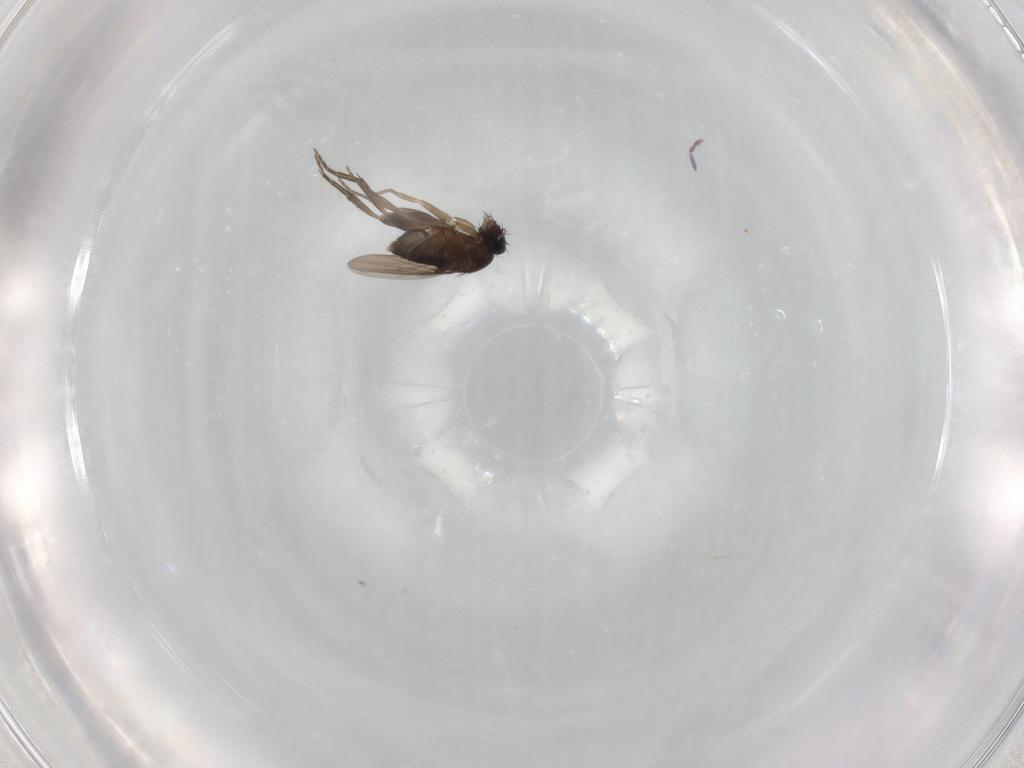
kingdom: Animalia
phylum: Arthropoda
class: Insecta
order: Diptera
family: Phoridae
